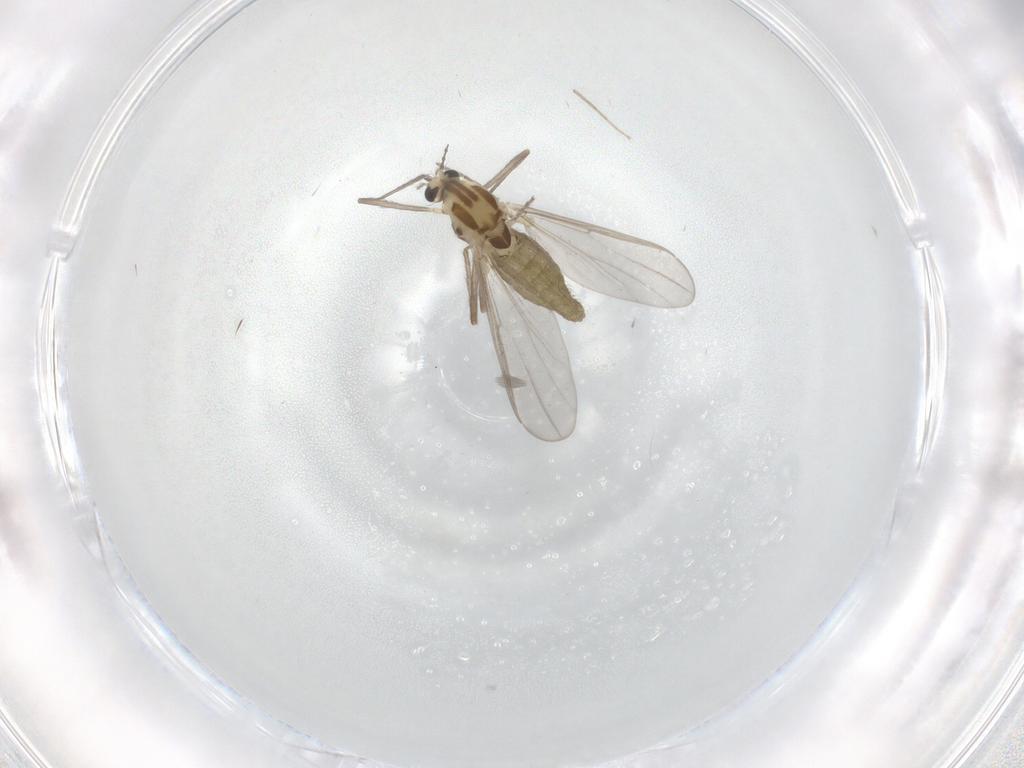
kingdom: Animalia
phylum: Arthropoda
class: Insecta
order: Diptera
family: Chironomidae
